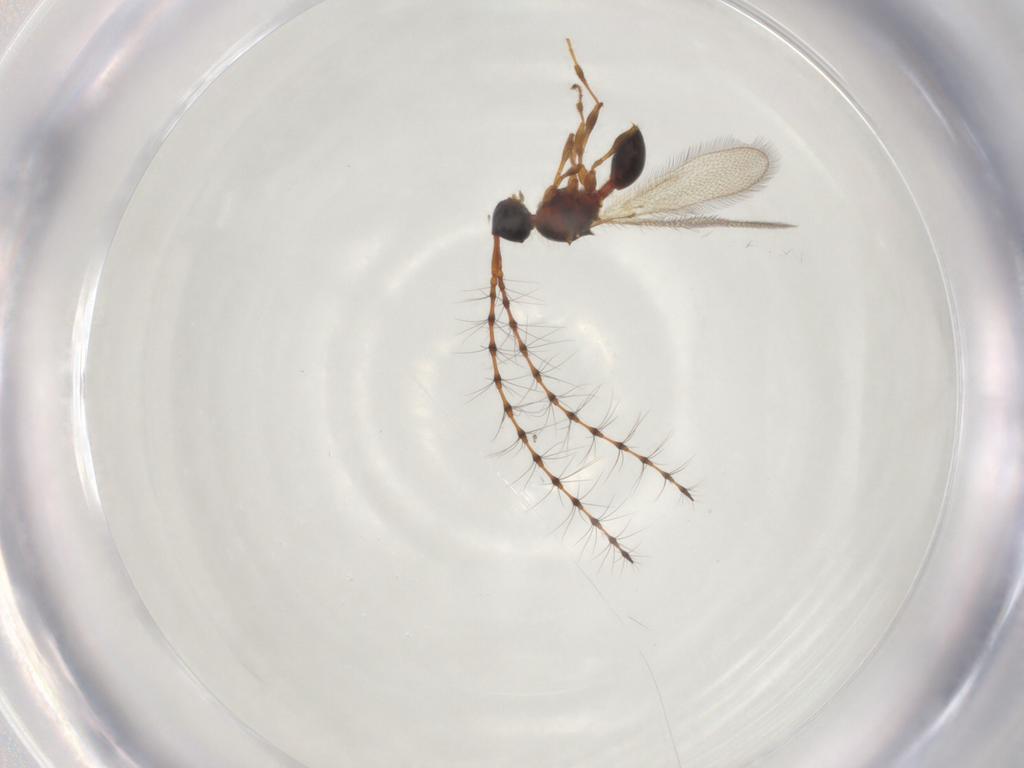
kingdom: Animalia
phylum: Arthropoda
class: Insecta
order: Hymenoptera
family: Diapriidae
